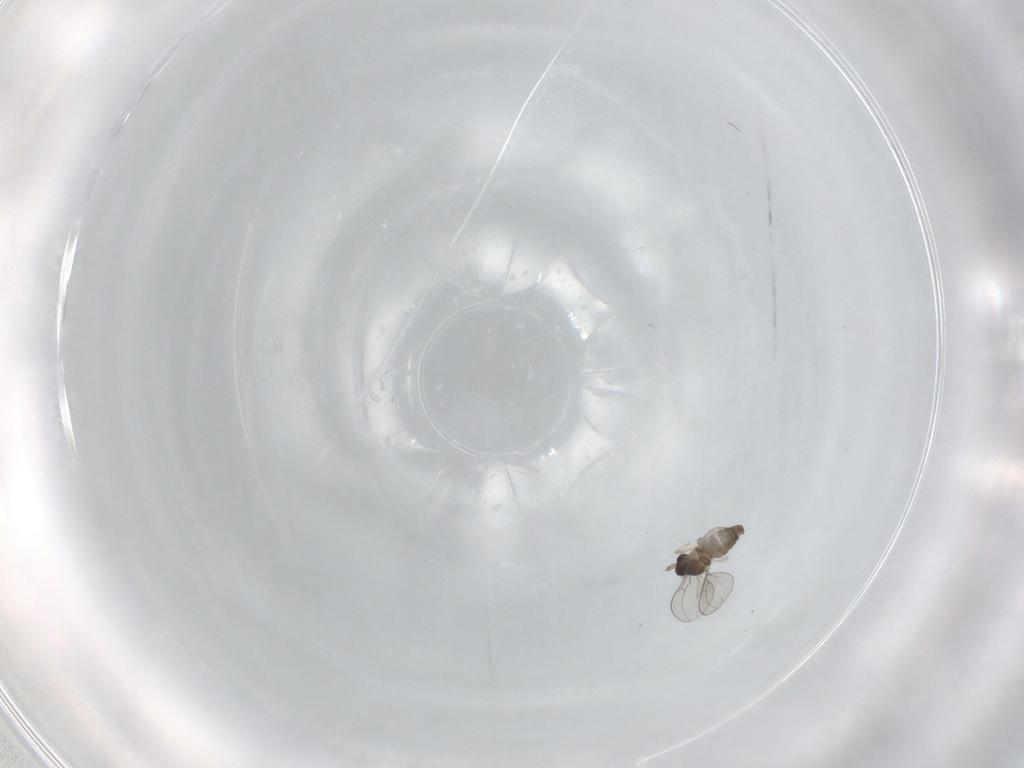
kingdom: Animalia
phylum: Arthropoda
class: Insecta
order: Diptera
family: Cecidomyiidae
